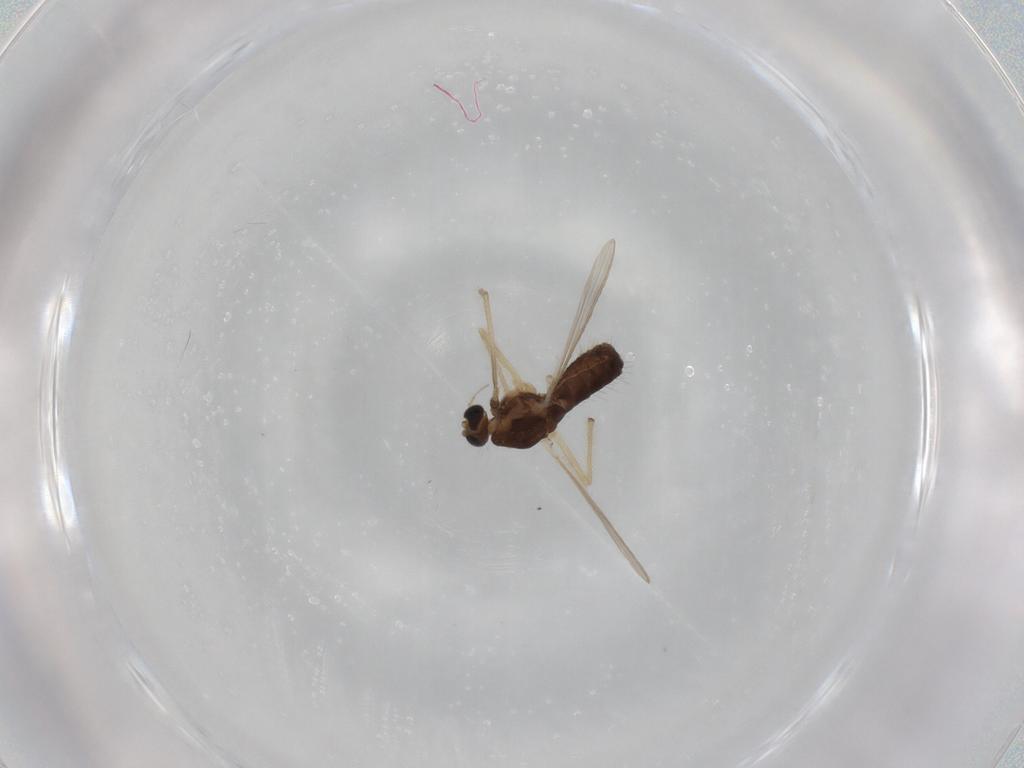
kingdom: Animalia
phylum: Arthropoda
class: Insecta
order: Diptera
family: Chironomidae
